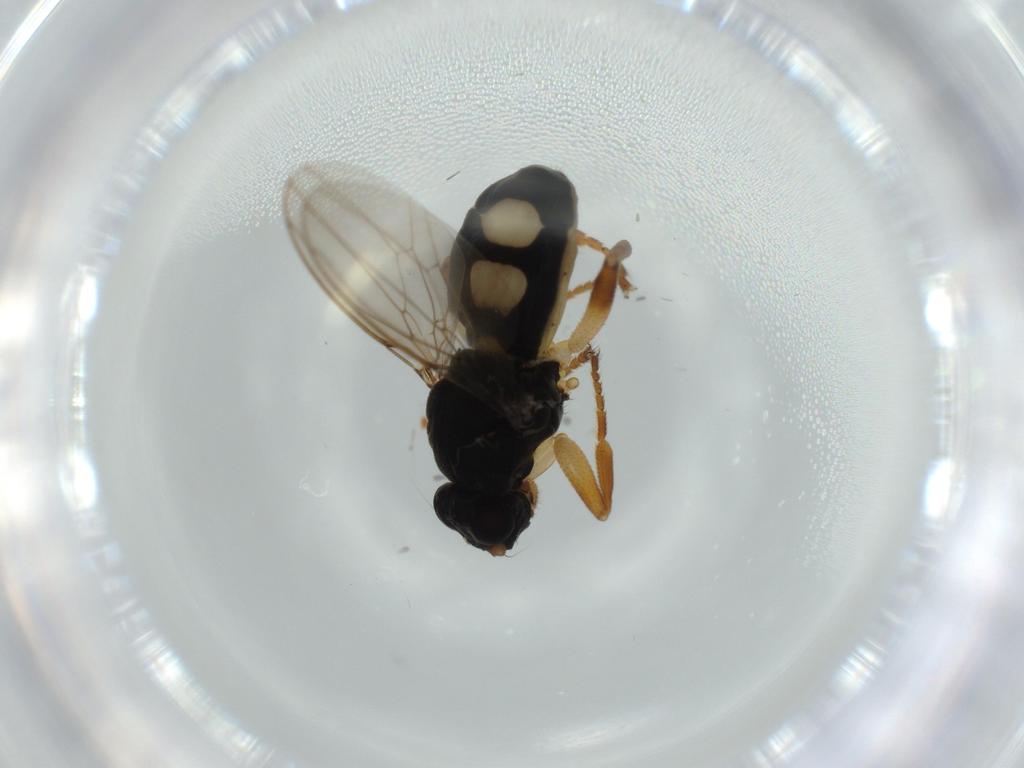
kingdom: Animalia
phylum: Arthropoda
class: Insecta
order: Diptera
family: Sphaeroceridae
